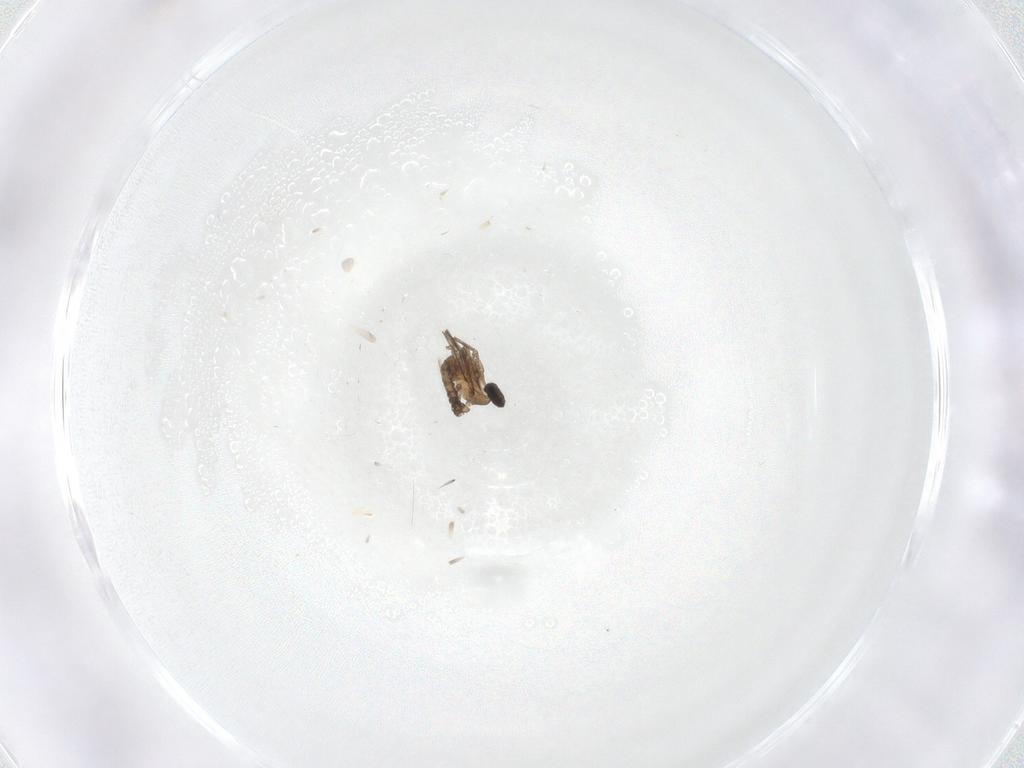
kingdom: Animalia
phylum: Arthropoda
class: Insecta
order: Diptera
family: Cecidomyiidae
